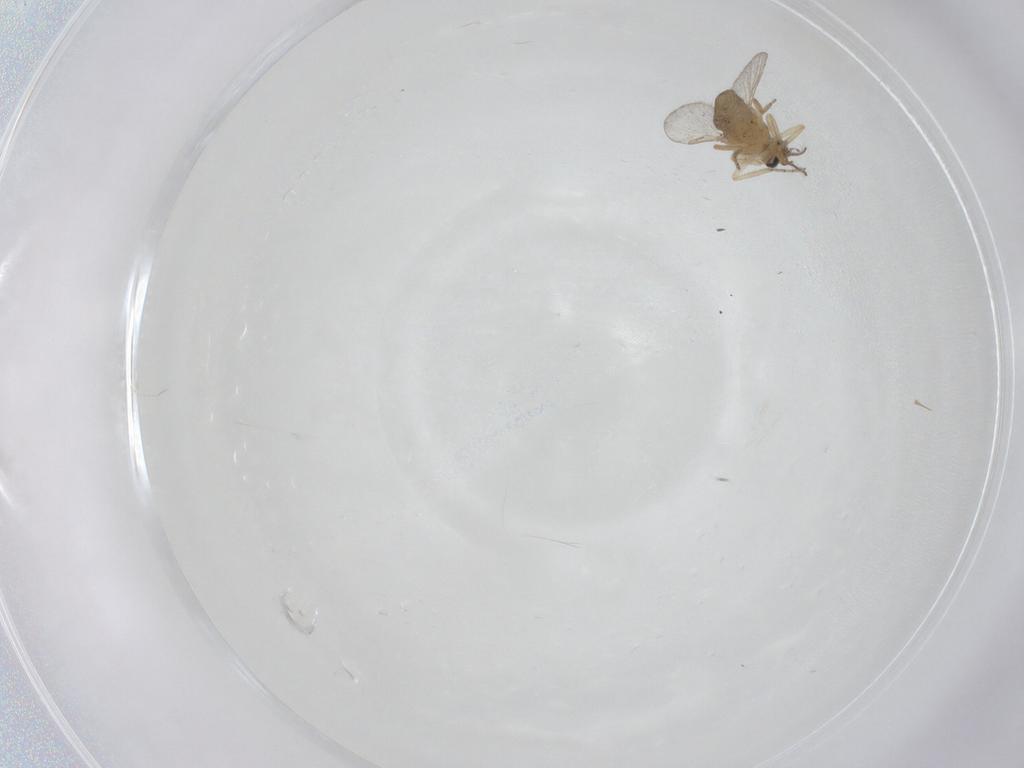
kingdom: Animalia
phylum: Arthropoda
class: Insecta
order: Diptera
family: Ceratopogonidae
